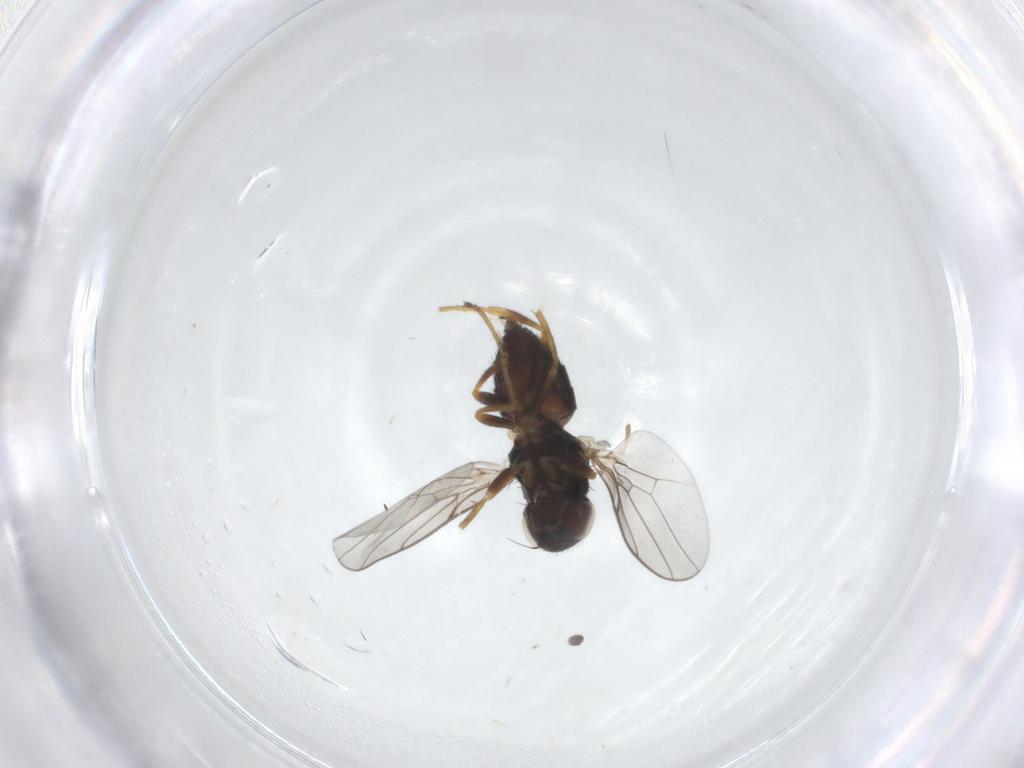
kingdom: Animalia
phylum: Arthropoda
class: Insecta
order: Diptera
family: Chloropidae
